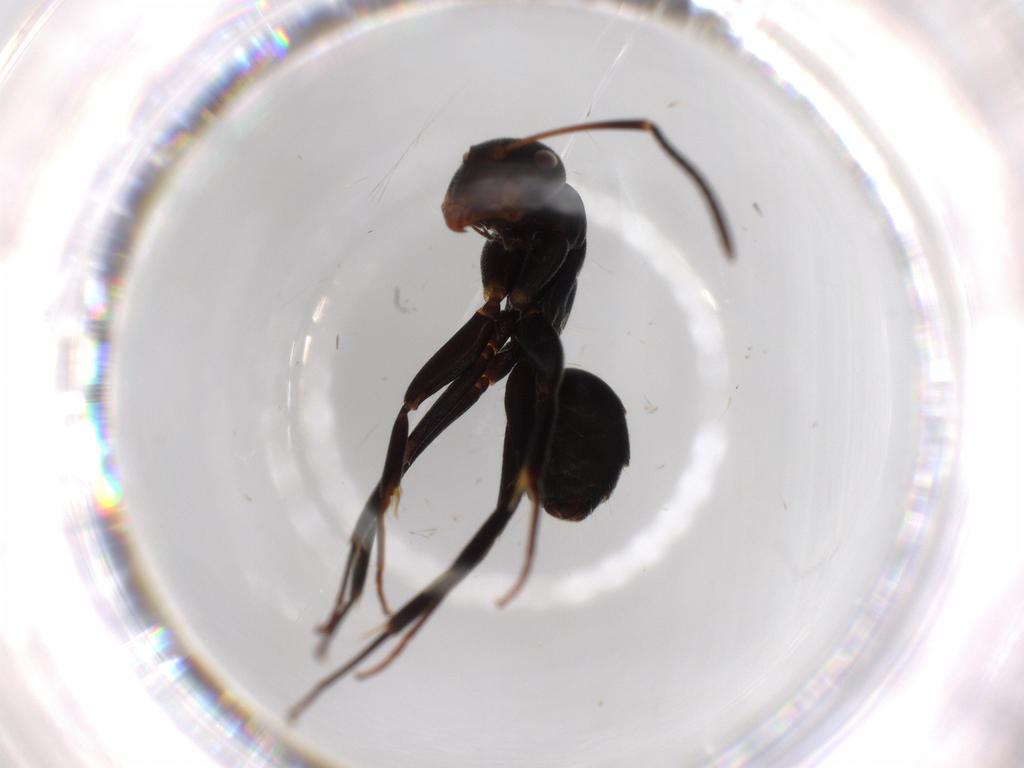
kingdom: Animalia
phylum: Arthropoda
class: Insecta
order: Hymenoptera
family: Formicidae
